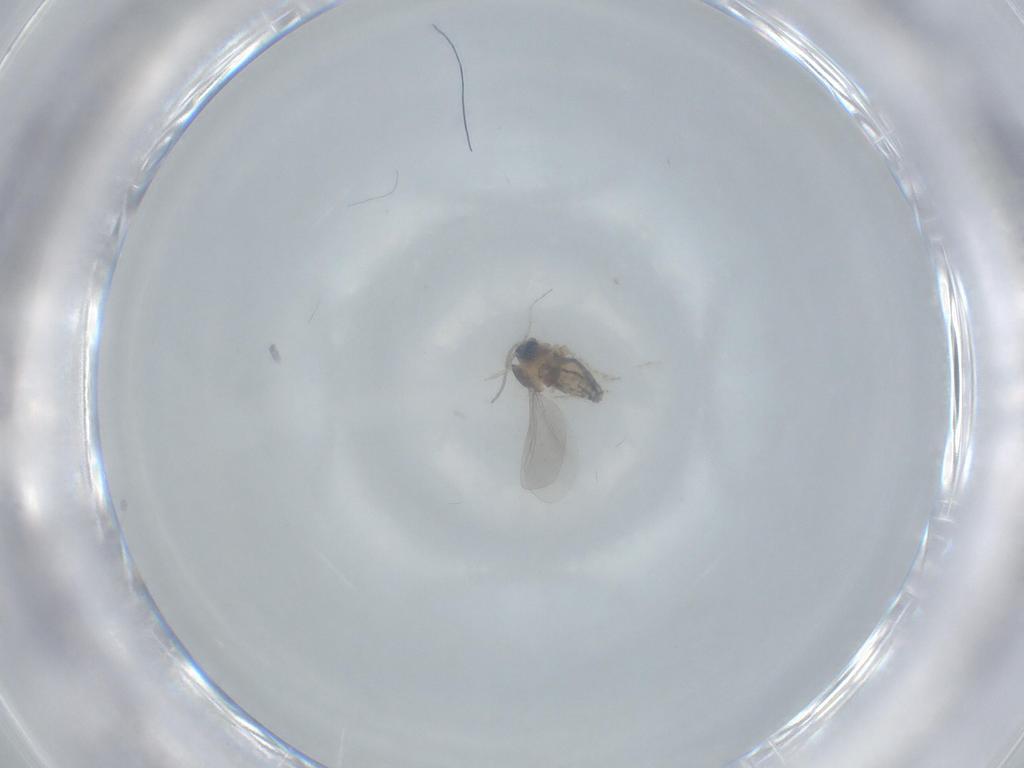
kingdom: Animalia
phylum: Arthropoda
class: Insecta
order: Diptera
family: Cecidomyiidae
